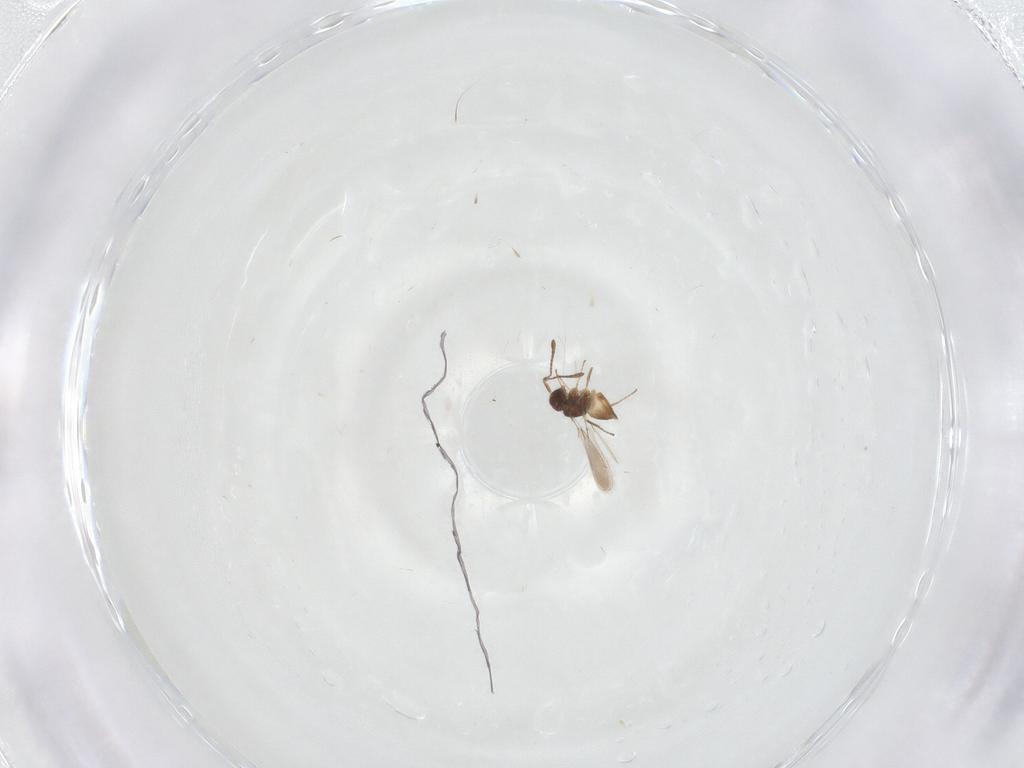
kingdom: Animalia
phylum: Arthropoda
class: Insecta
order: Hymenoptera
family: Mymaridae
